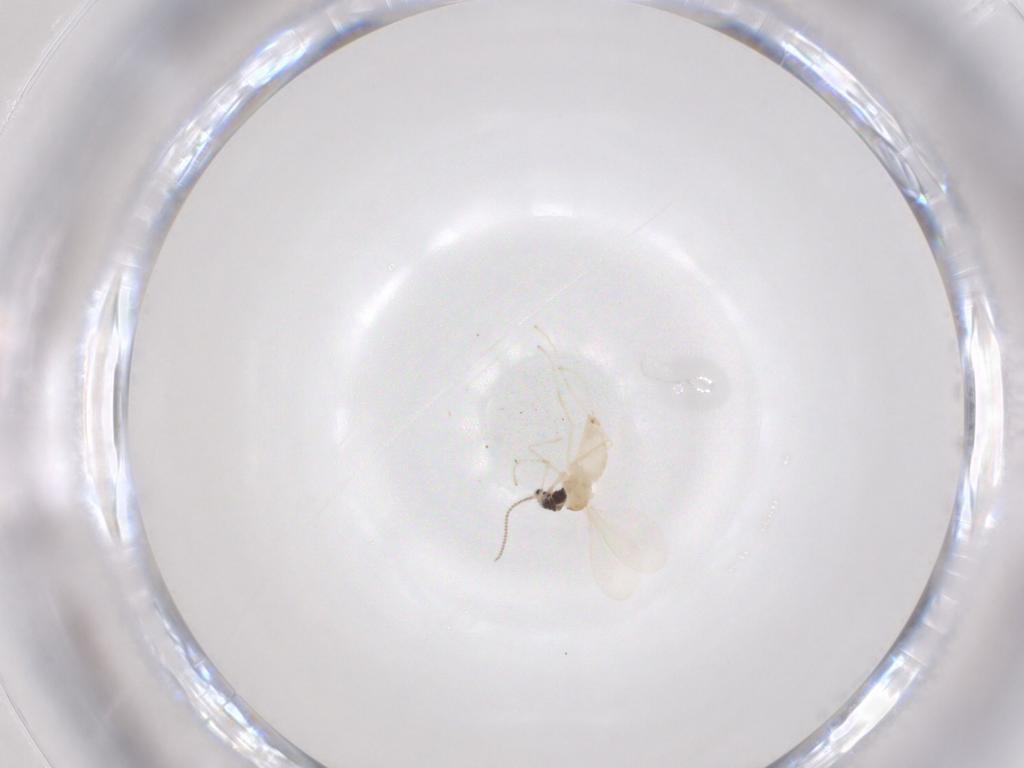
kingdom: Animalia
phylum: Arthropoda
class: Insecta
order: Diptera
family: Cecidomyiidae
